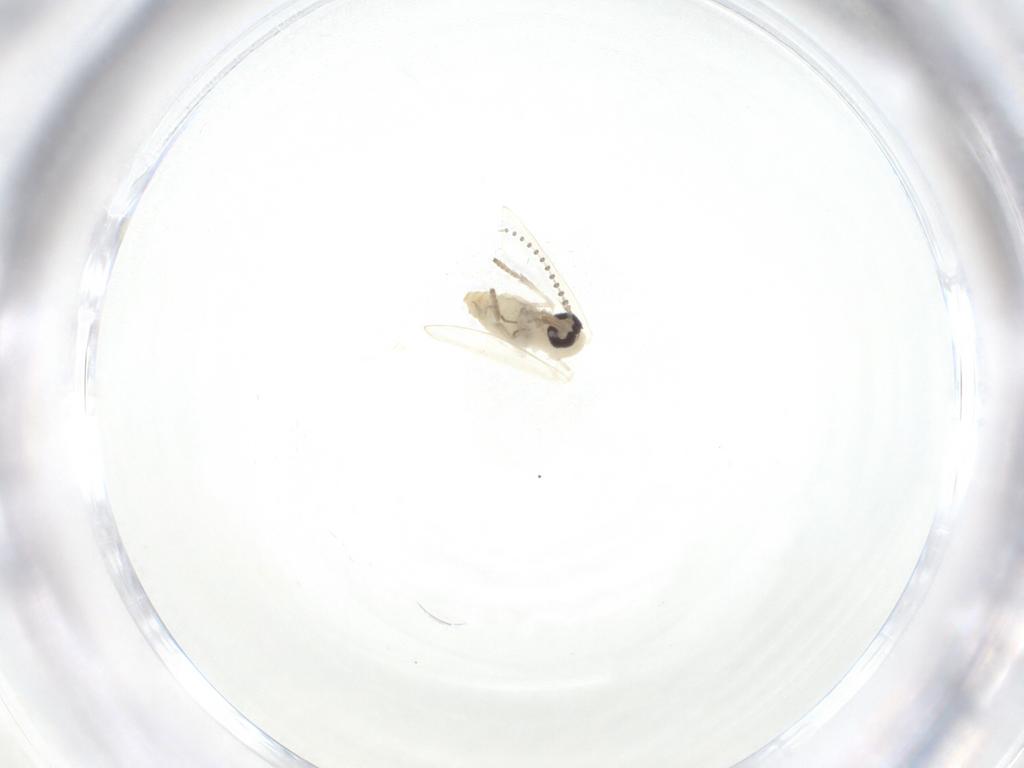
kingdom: Animalia
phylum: Arthropoda
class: Insecta
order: Diptera
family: Psychodidae
